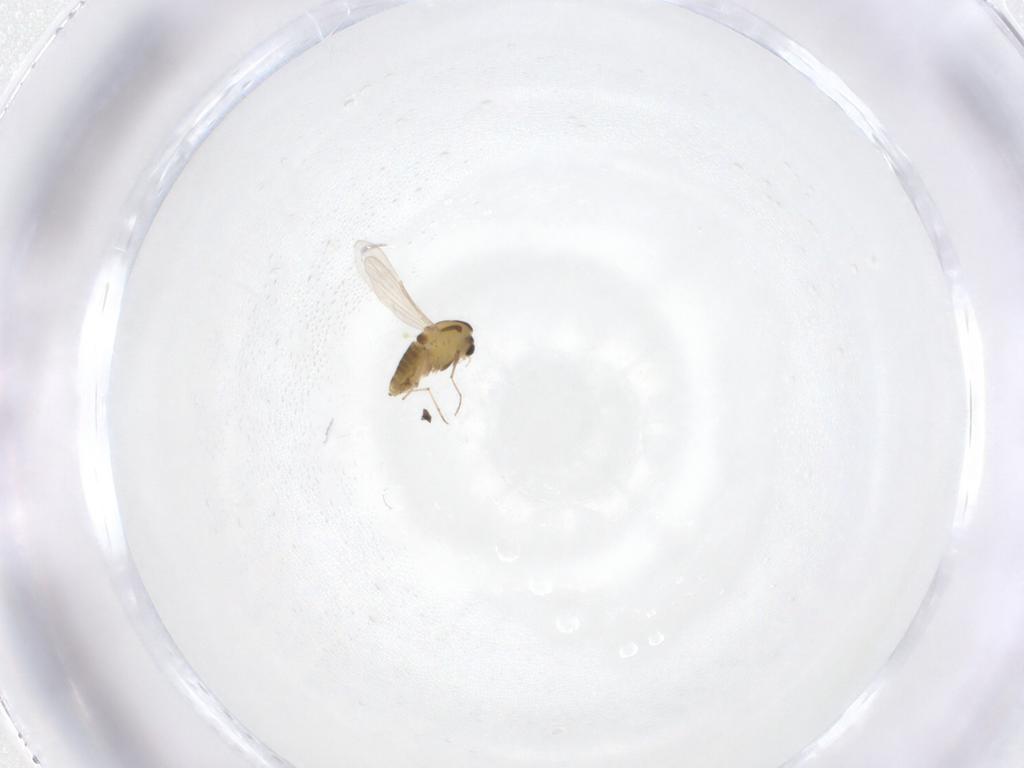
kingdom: Animalia
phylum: Arthropoda
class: Insecta
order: Diptera
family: Chironomidae
